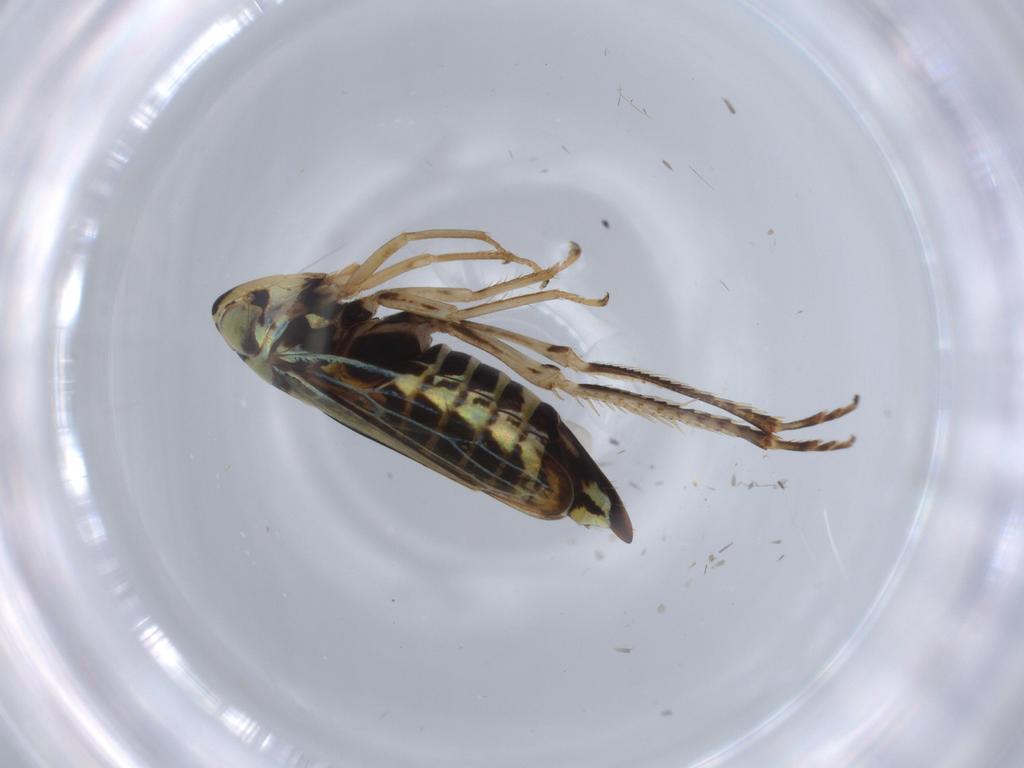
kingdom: Animalia
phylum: Arthropoda
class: Insecta
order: Hemiptera
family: Cicadellidae
